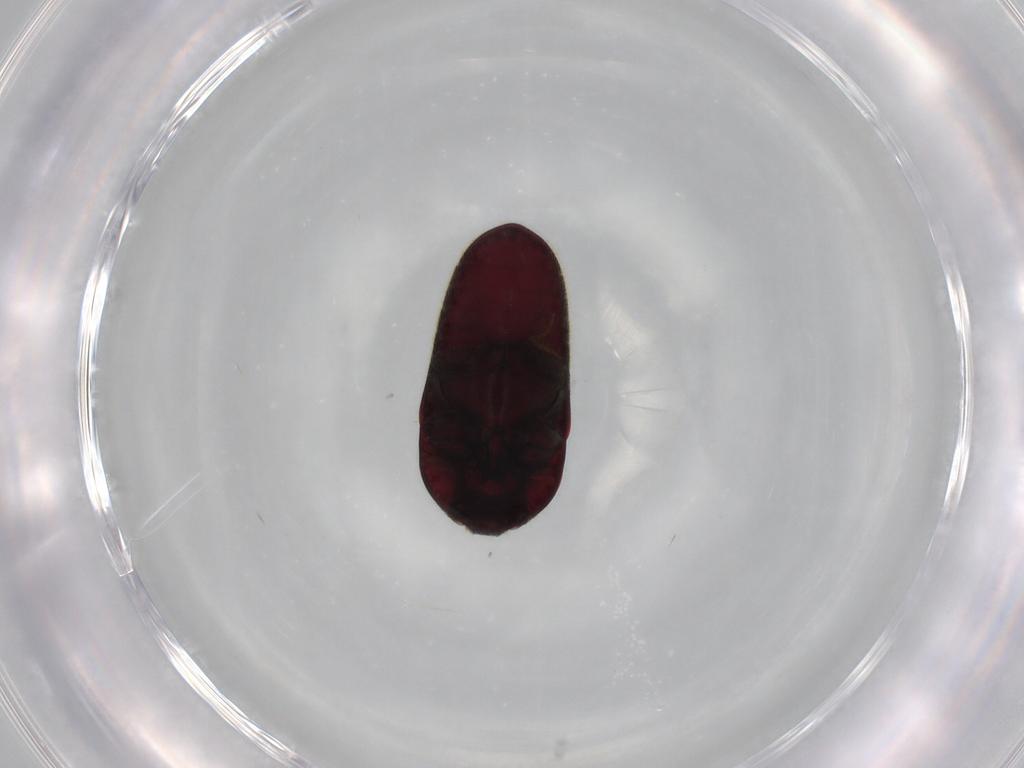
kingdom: Animalia
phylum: Arthropoda
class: Insecta
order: Coleoptera
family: Throscidae
